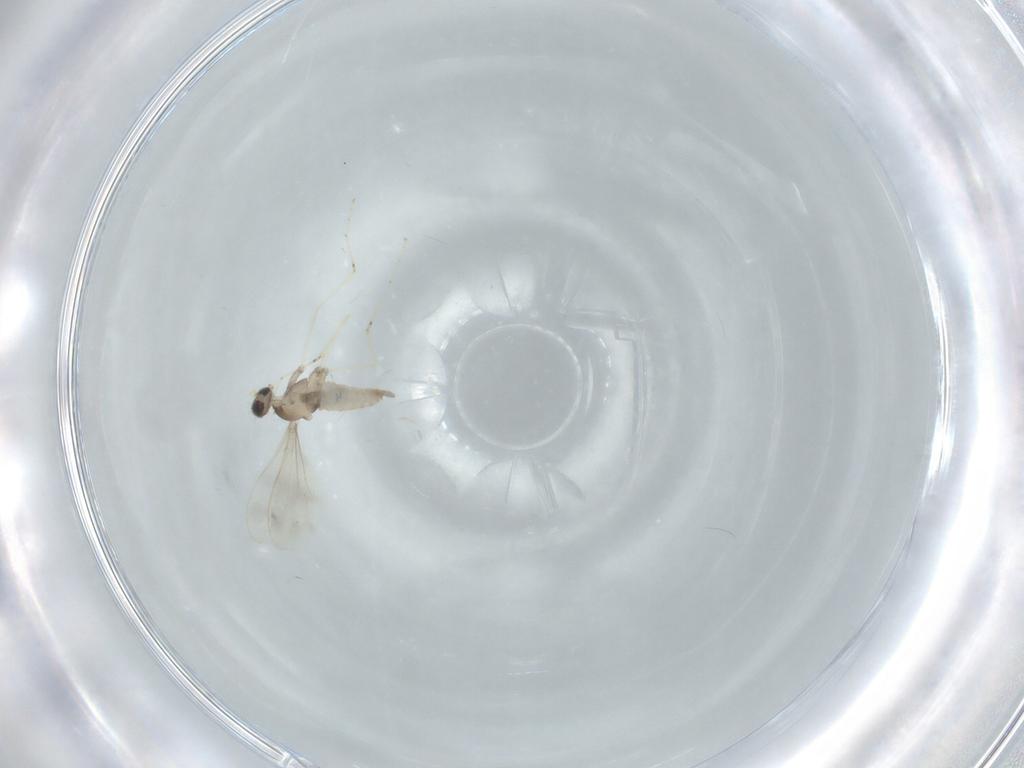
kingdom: Animalia
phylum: Arthropoda
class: Insecta
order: Diptera
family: Cecidomyiidae
